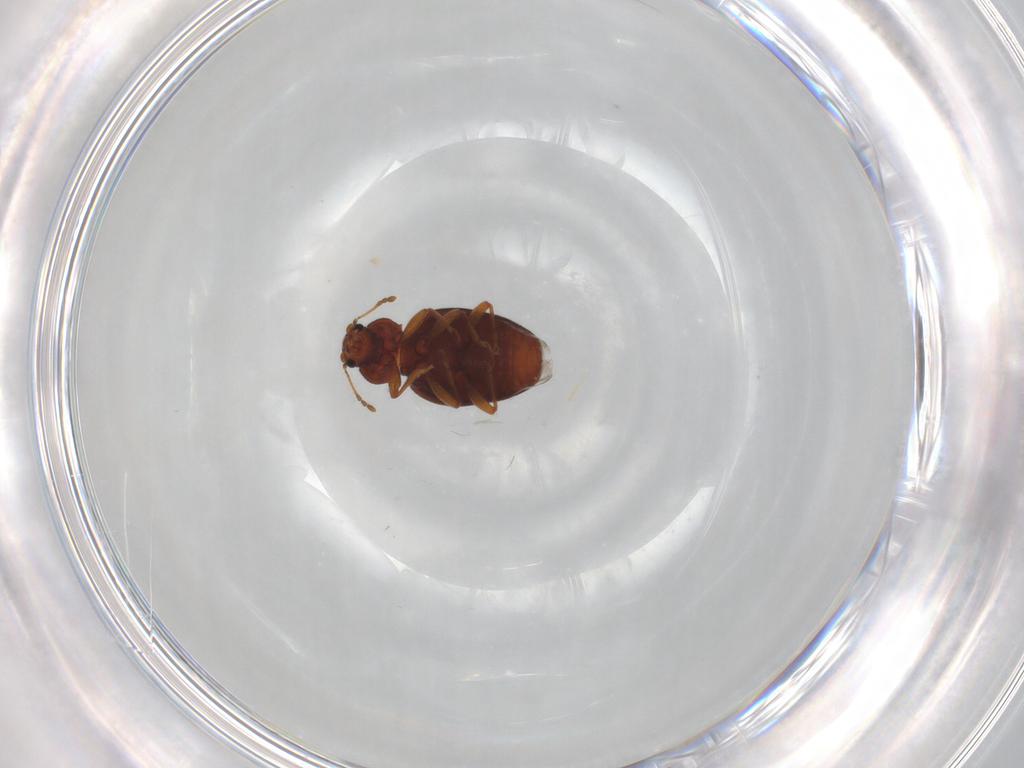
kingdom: Animalia
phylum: Arthropoda
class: Insecta
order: Coleoptera
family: Latridiidae
